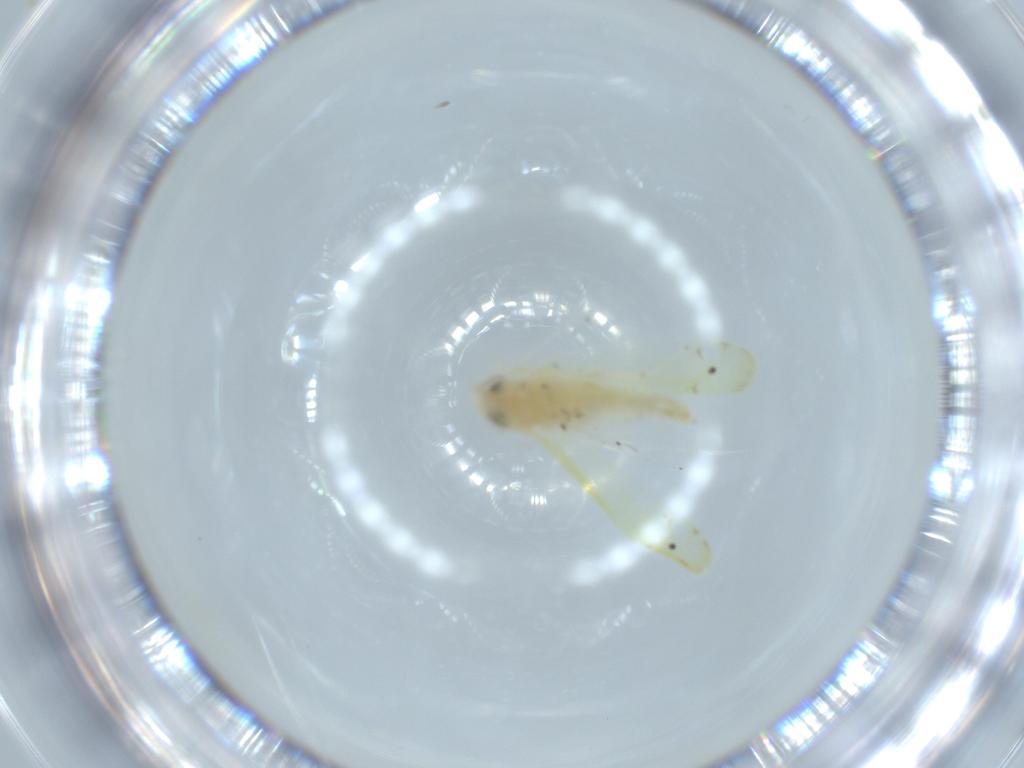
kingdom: Animalia
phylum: Arthropoda
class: Insecta
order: Hemiptera
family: Cicadellidae
